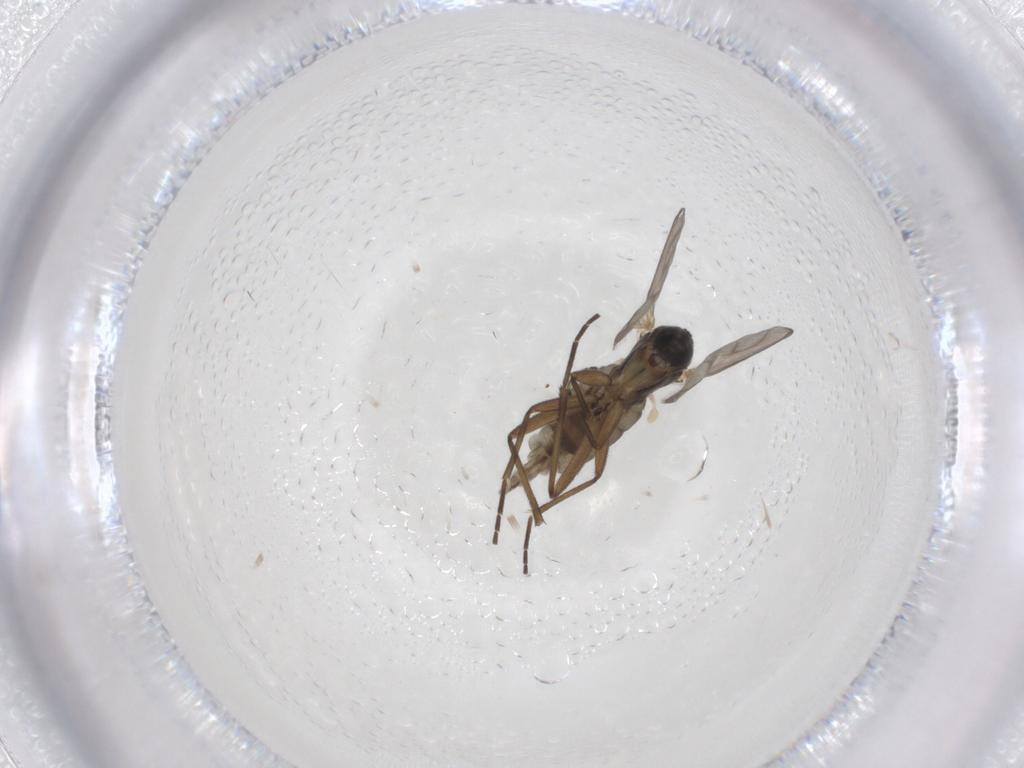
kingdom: Animalia
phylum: Arthropoda
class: Insecta
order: Diptera
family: Chironomidae
